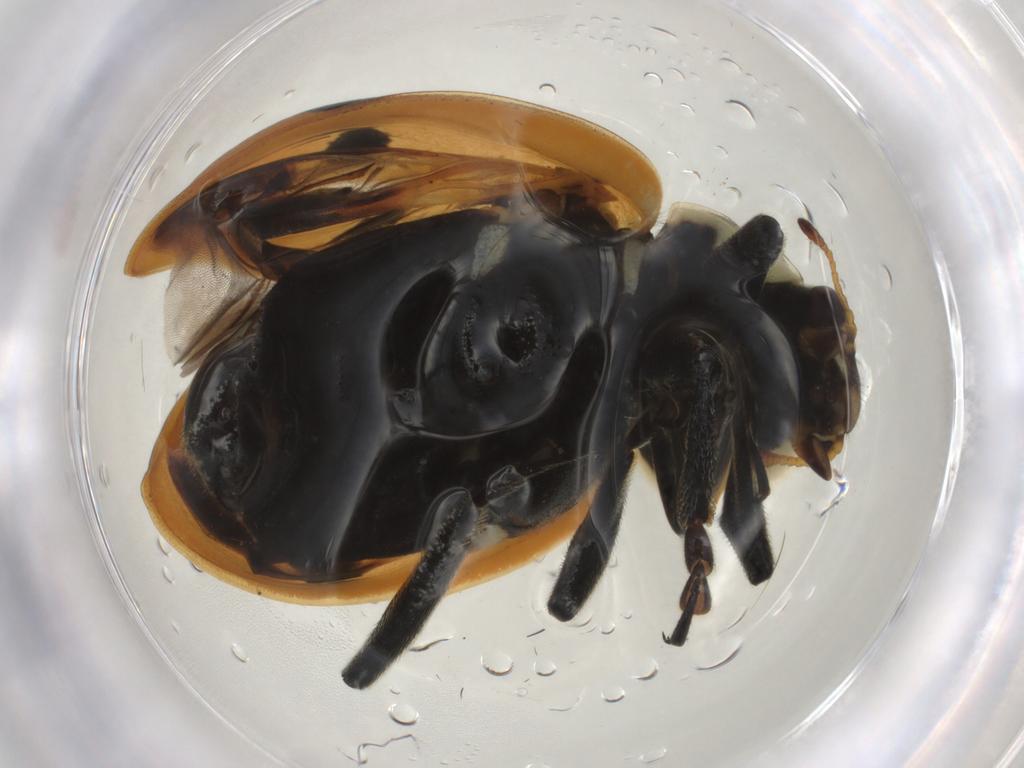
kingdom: Animalia
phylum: Arthropoda
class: Insecta
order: Coleoptera
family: Coccinellidae
